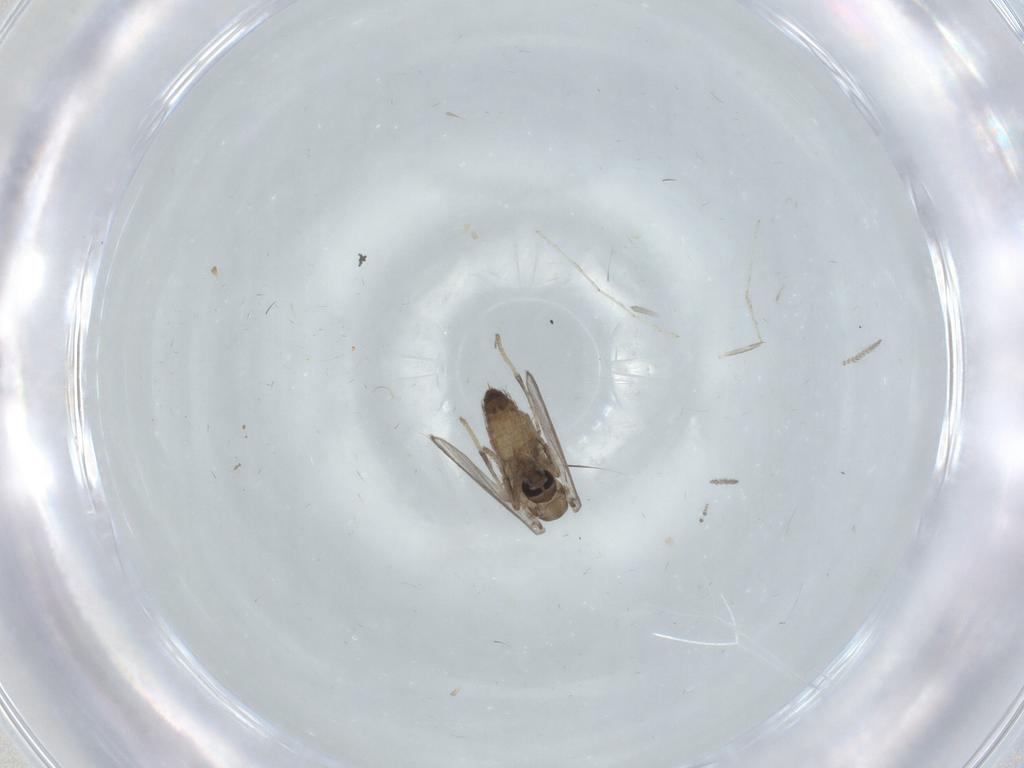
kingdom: Animalia
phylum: Arthropoda
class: Insecta
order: Diptera
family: Psychodidae
